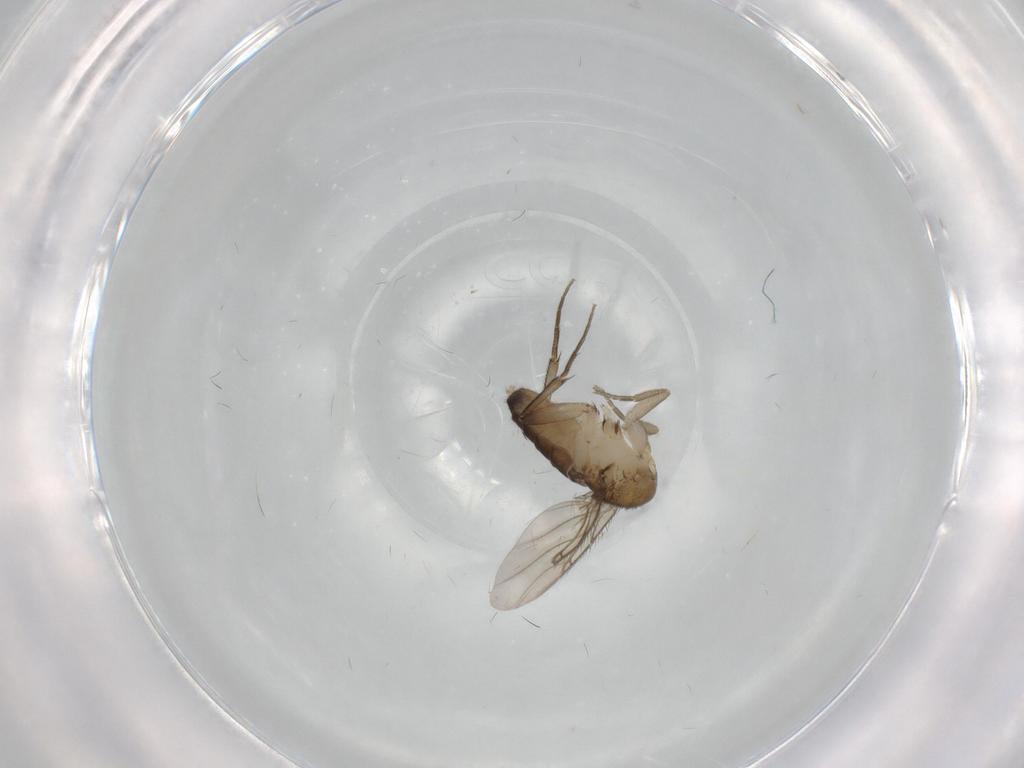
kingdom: Animalia
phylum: Arthropoda
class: Insecta
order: Diptera
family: Phoridae
